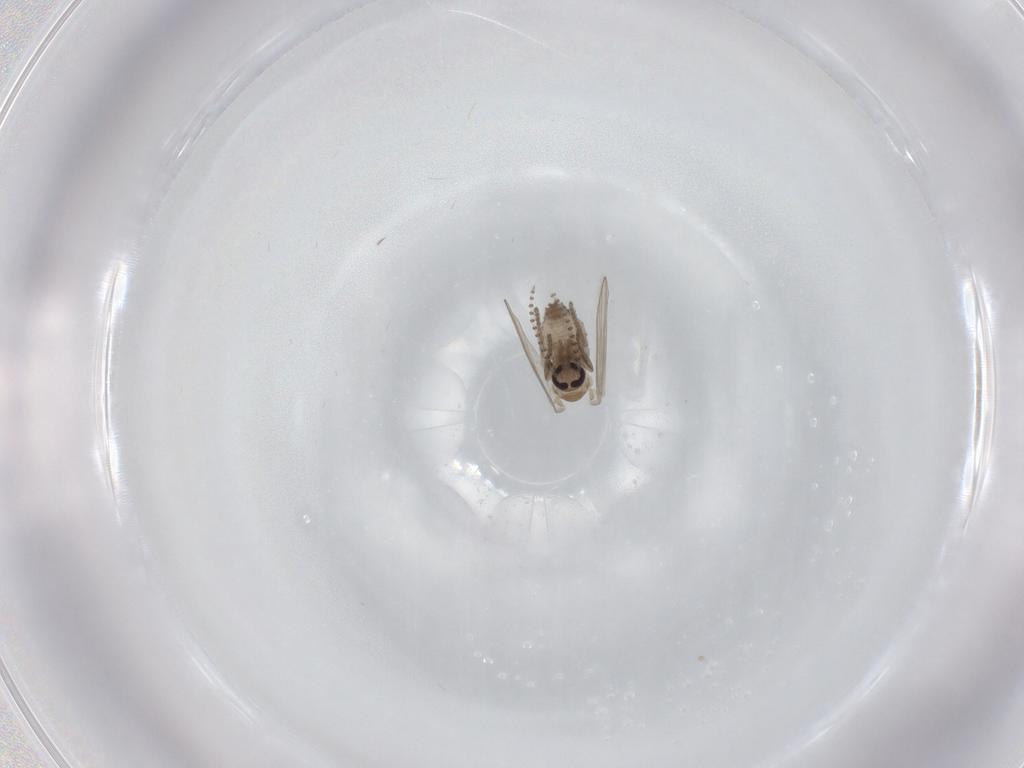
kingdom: Animalia
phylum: Arthropoda
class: Insecta
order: Diptera
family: Psychodidae
